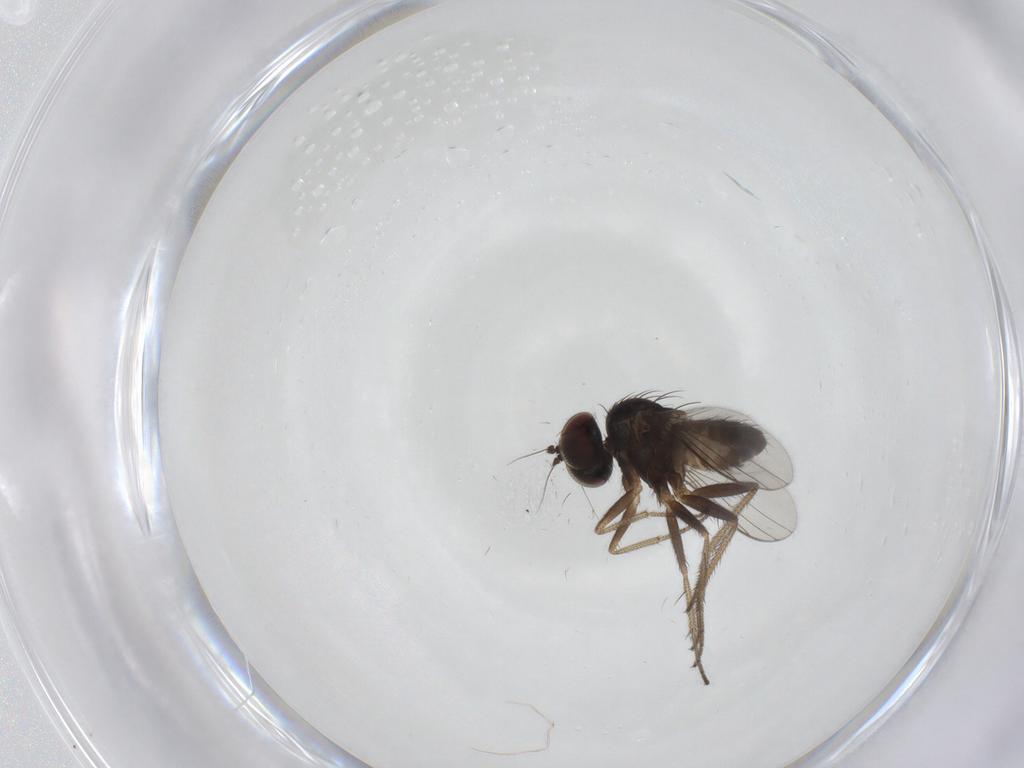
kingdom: Animalia
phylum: Arthropoda
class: Insecta
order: Diptera
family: Dolichopodidae
